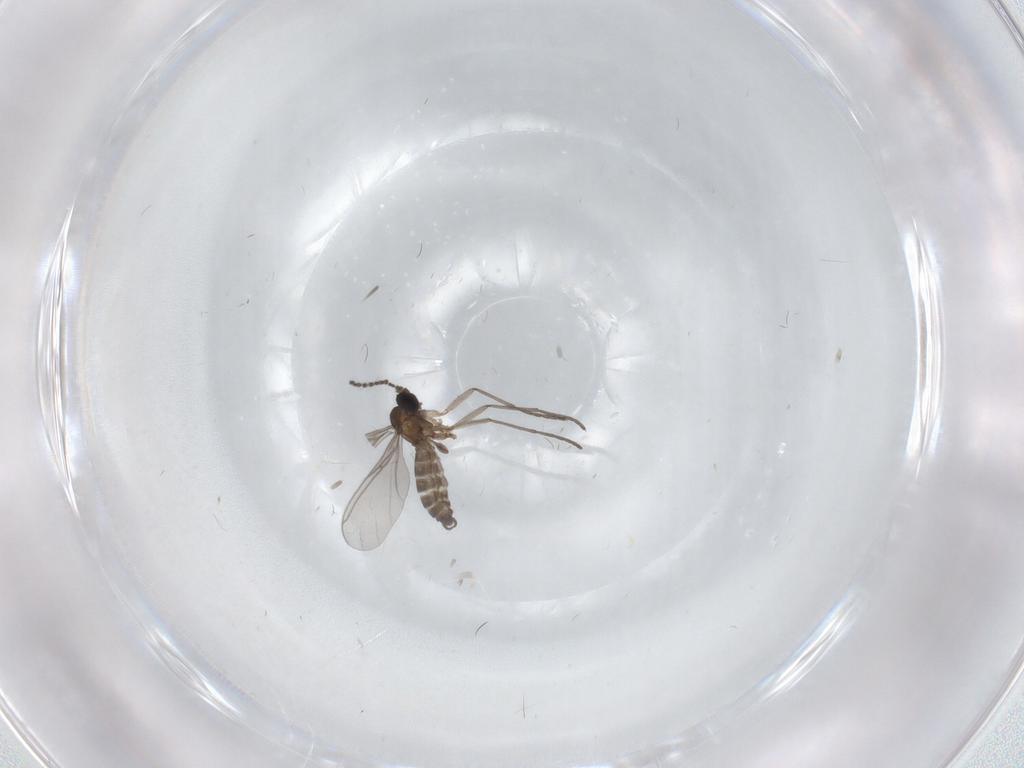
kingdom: Animalia
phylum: Arthropoda
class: Insecta
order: Diptera
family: Sciaridae
